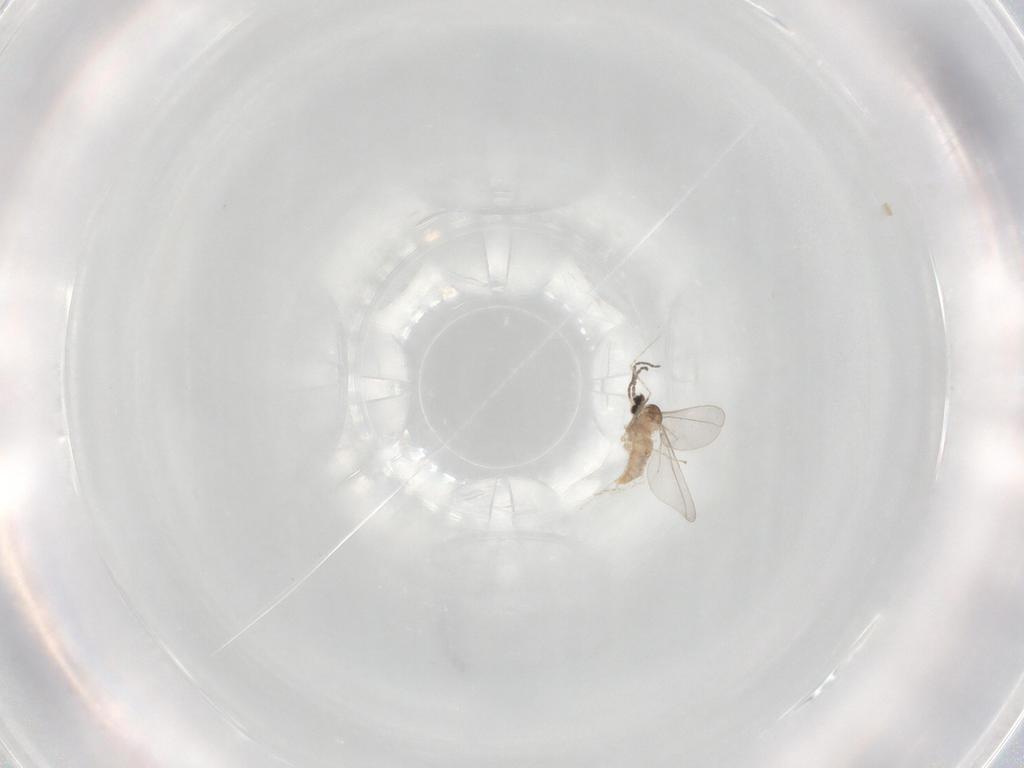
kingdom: Animalia
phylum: Arthropoda
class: Insecta
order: Diptera
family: Cecidomyiidae
